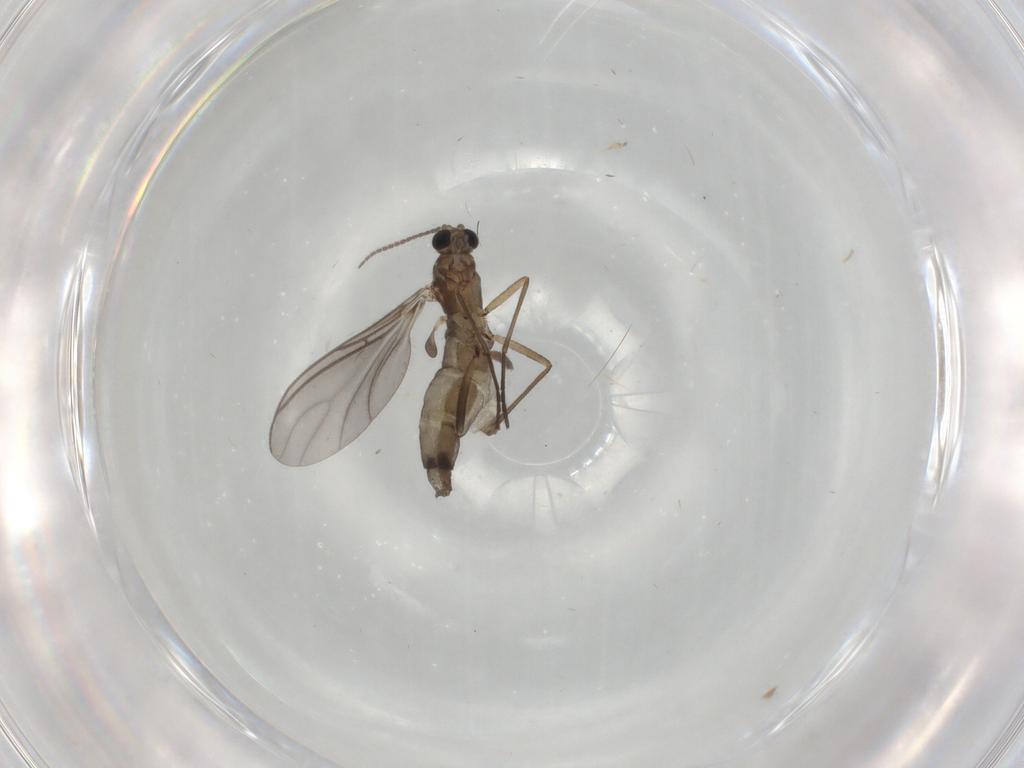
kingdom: Animalia
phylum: Arthropoda
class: Insecta
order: Diptera
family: Sciaridae
